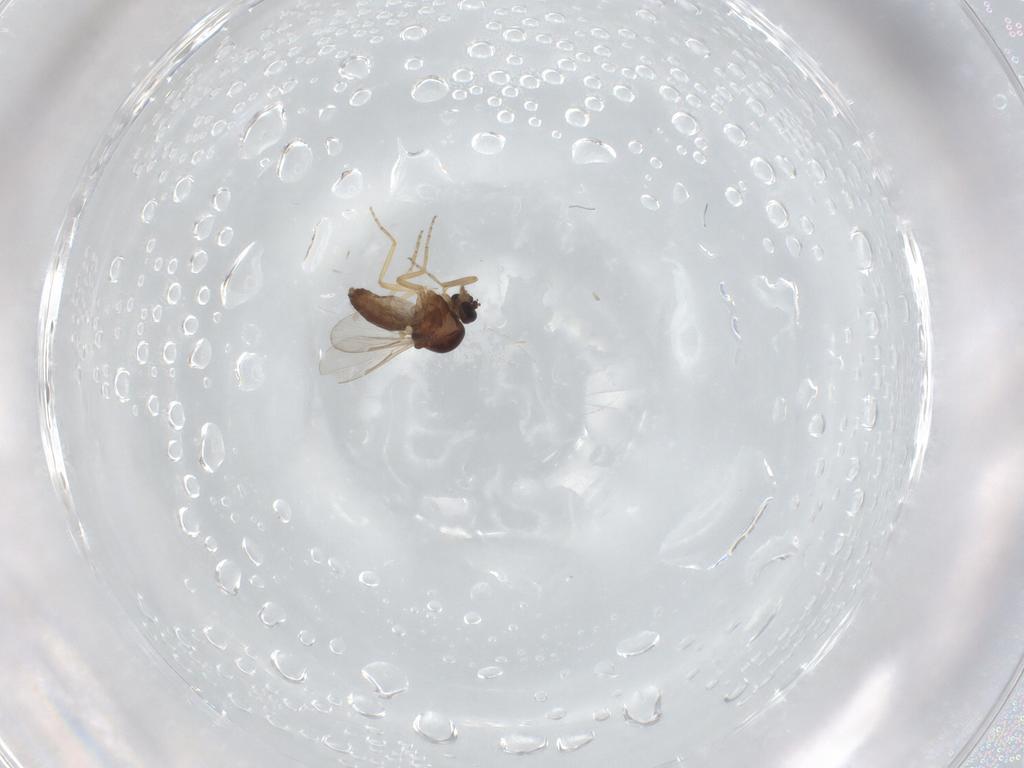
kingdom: Animalia
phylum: Arthropoda
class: Insecta
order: Diptera
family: Ceratopogonidae
